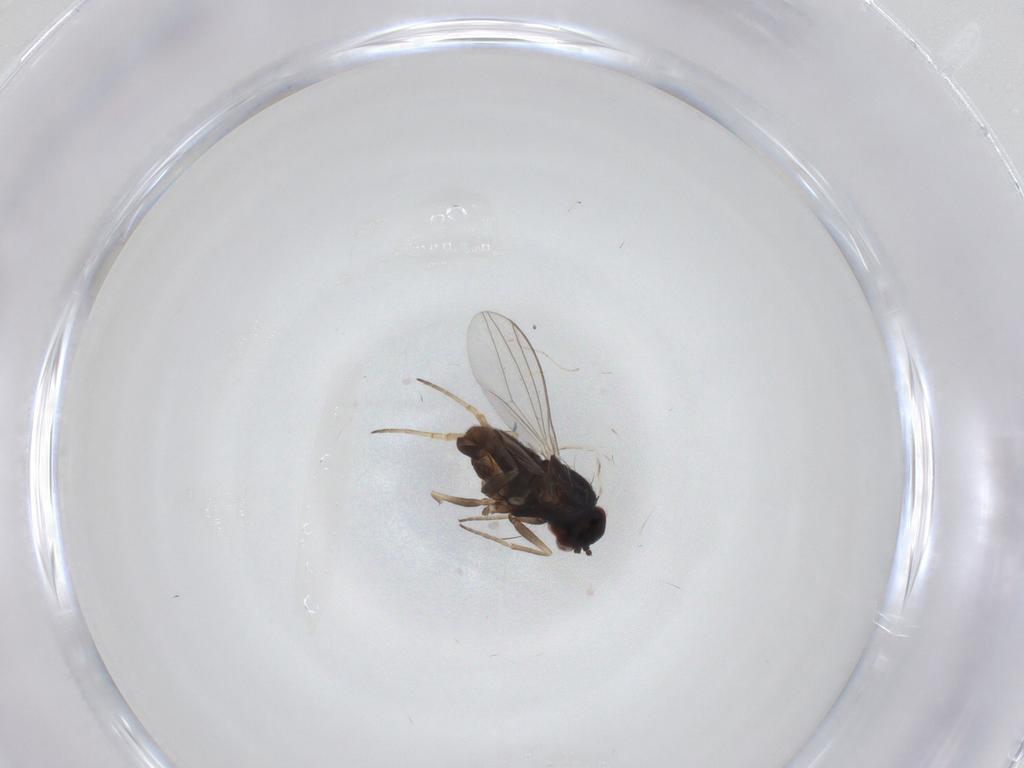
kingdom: Animalia
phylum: Arthropoda
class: Insecta
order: Diptera
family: Dolichopodidae
